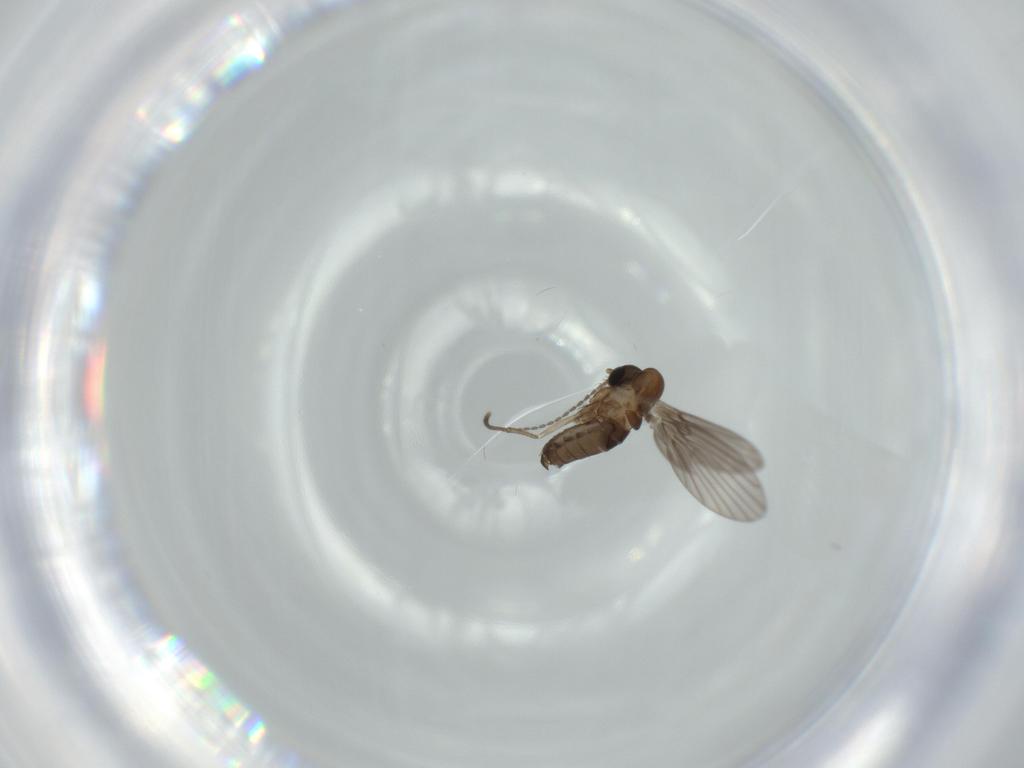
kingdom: Animalia
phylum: Arthropoda
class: Insecta
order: Diptera
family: Psychodidae
